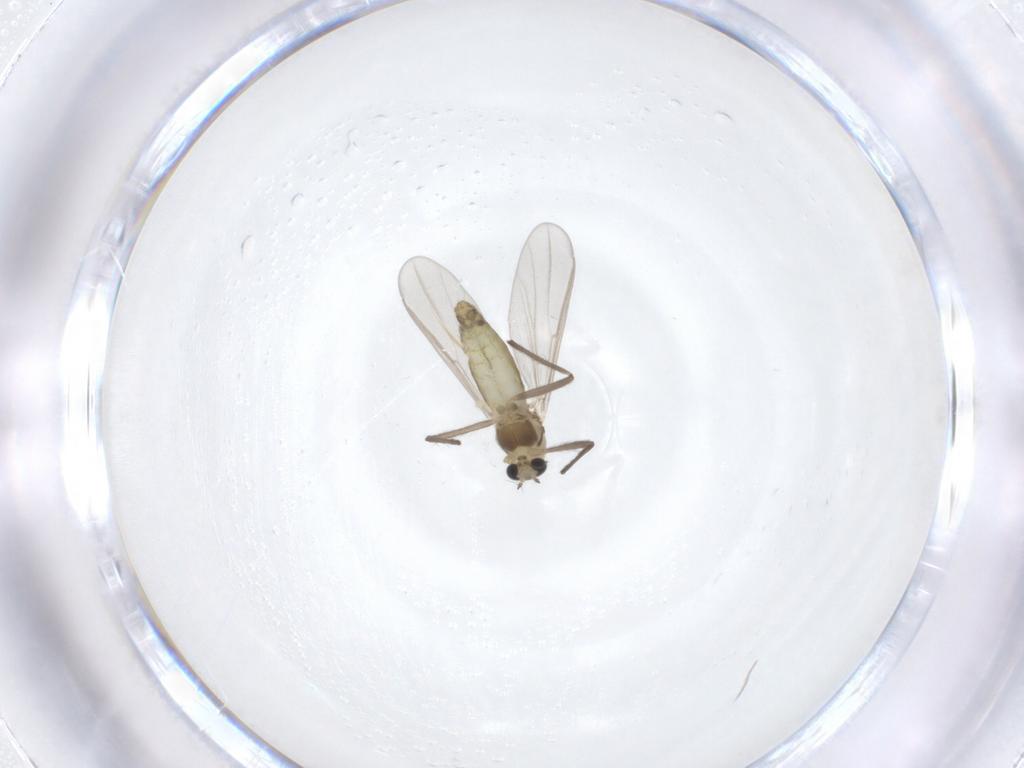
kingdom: Animalia
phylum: Arthropoda
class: Insecta
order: Diptera
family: Chironomidae
